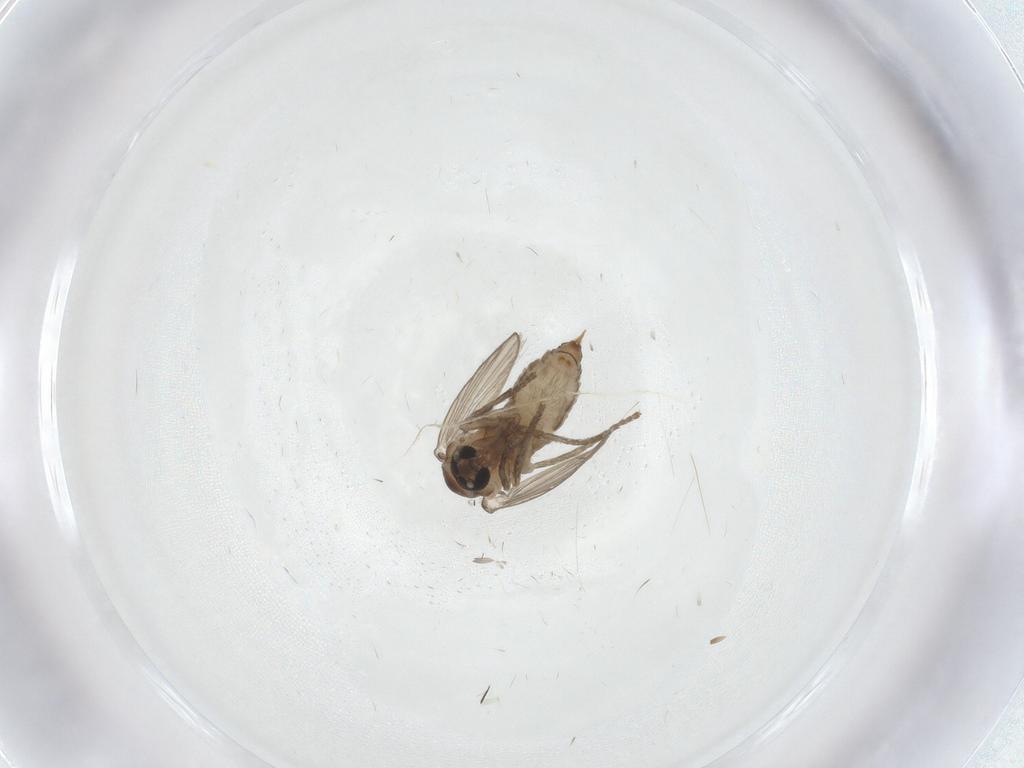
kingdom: Animalia
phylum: Arthropoda
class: Insecta
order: Diptera
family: Psychodidae
